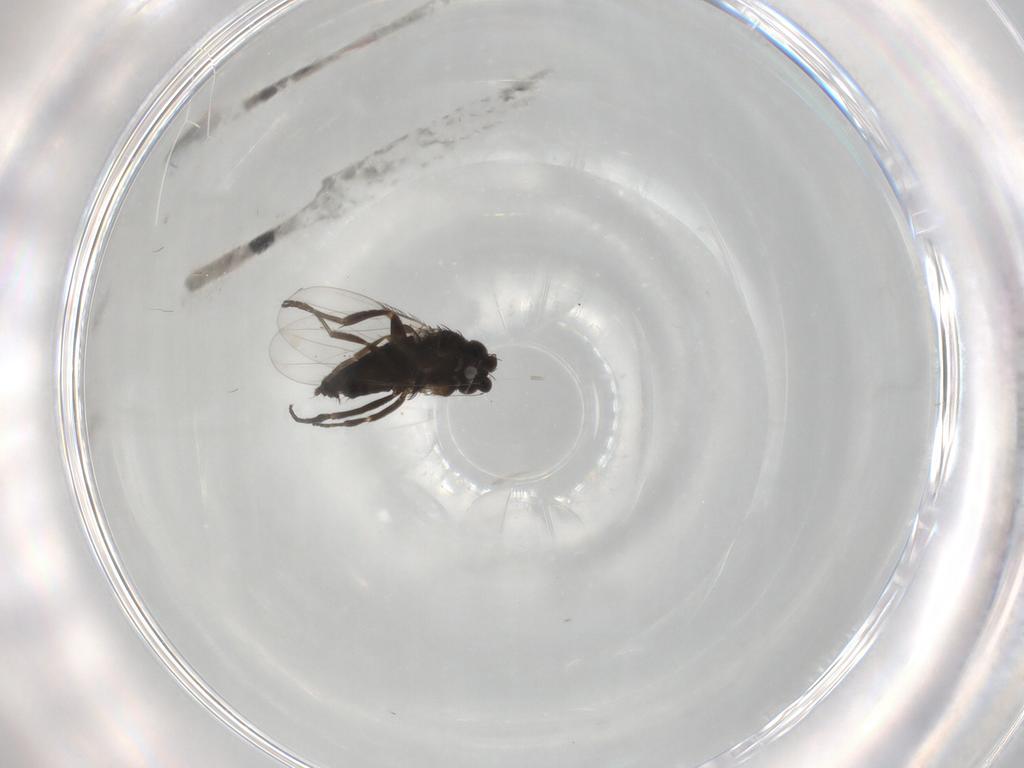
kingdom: Animalia
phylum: Arthropoda
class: Insecta
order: Diptera
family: Phoridae
